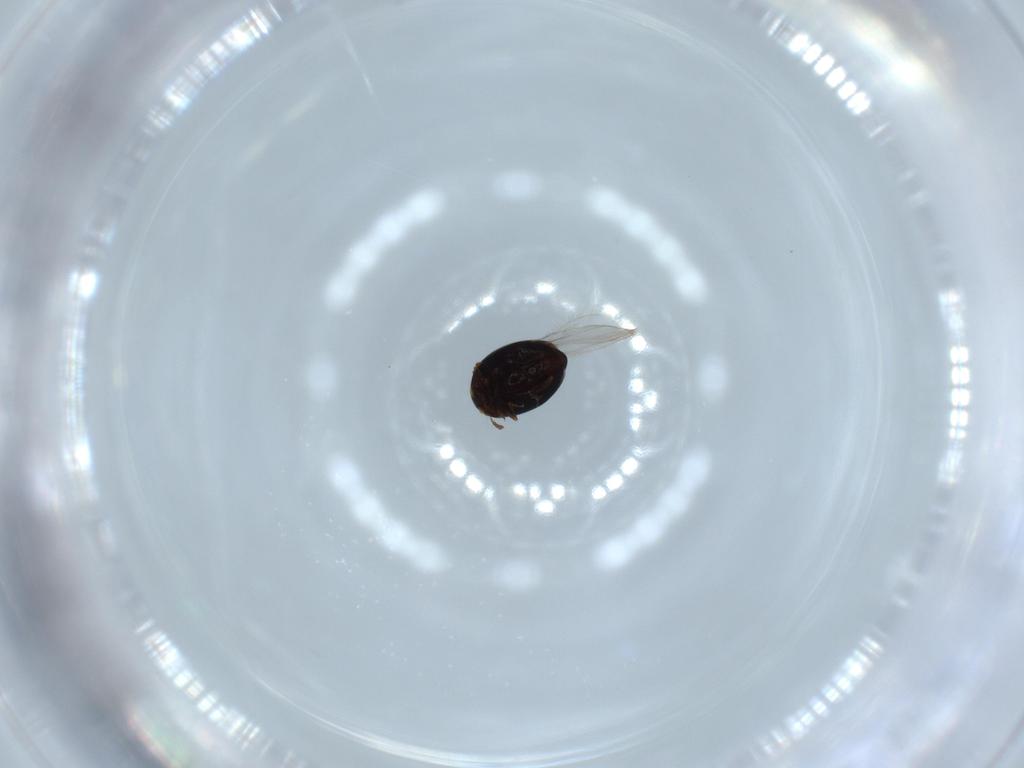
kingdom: Animalia
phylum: Arthropoda
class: Insecta
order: Coleoptera
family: Corylophidae
